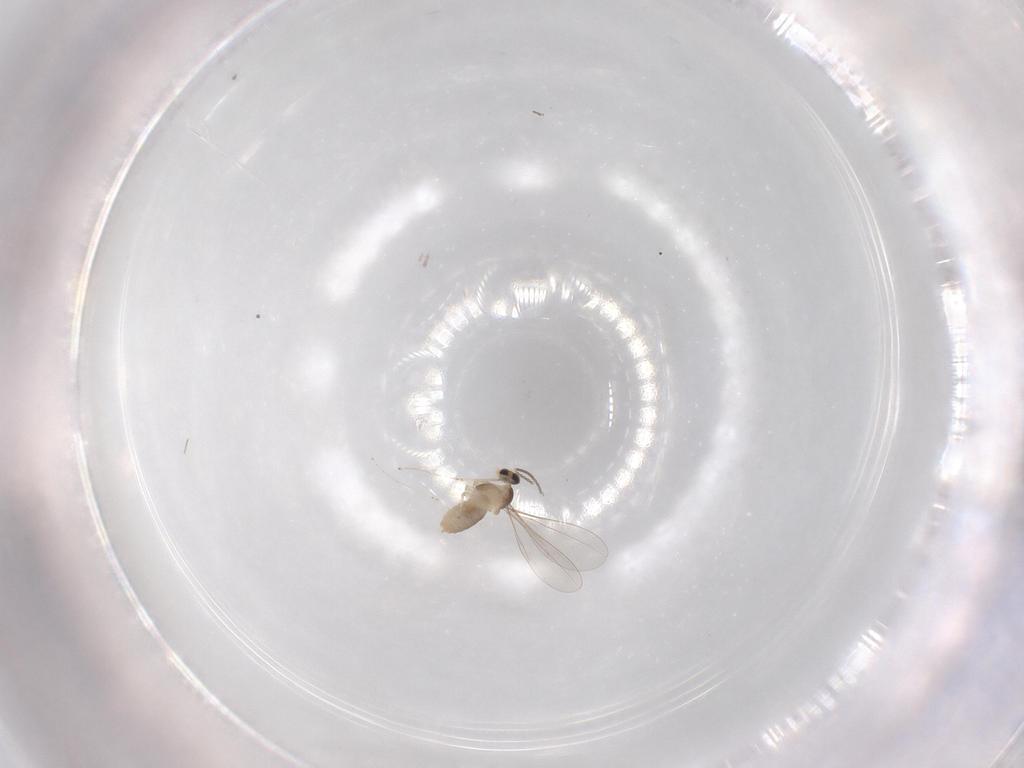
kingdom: Animalia
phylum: Arthropoda
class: Insecta
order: Diptera
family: Cecidomyiidae
